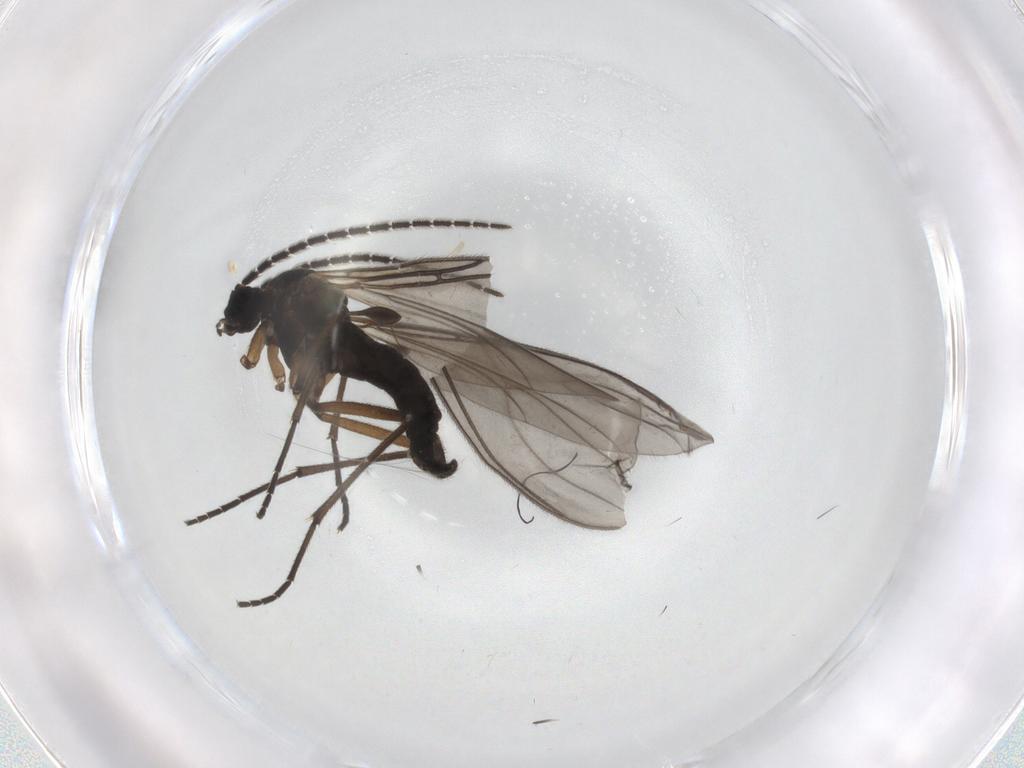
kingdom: Animalia
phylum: Arthropoda
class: Insecta
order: Diptera
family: Sciaridae
